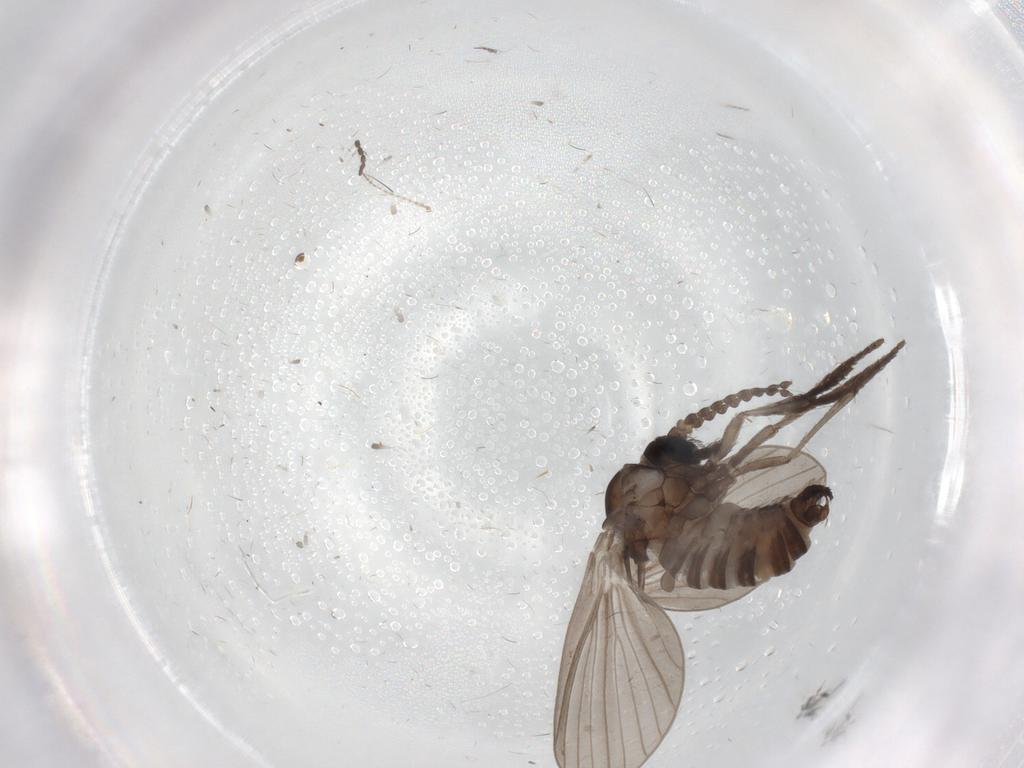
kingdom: Animalia
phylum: Arthropoda
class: Insecta
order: Diptera
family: Psychodidae
